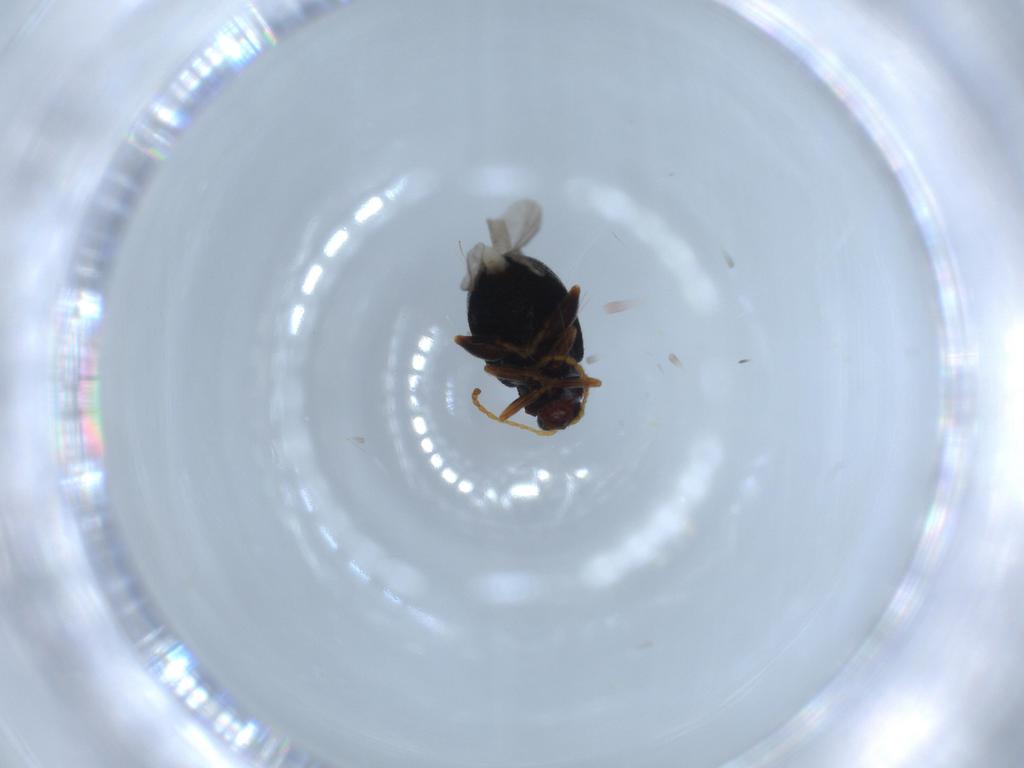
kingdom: Animalia
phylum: Arthropoda
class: Insecta
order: Coleoptera
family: Chrysomelidae
